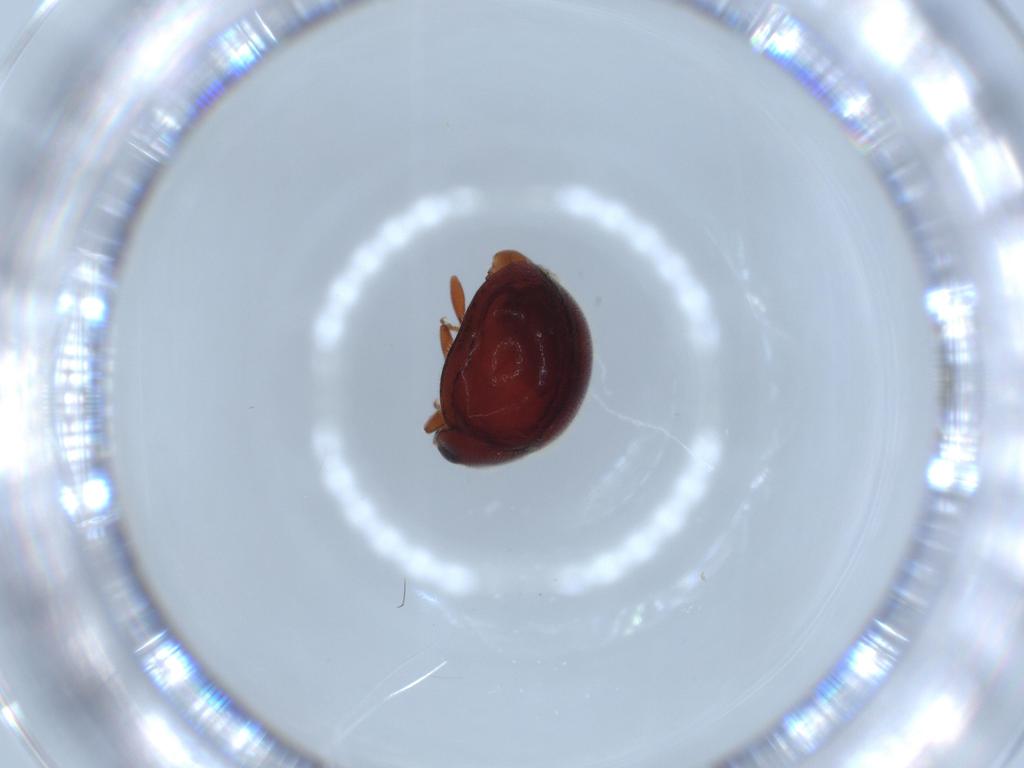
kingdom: Animalia
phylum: Arthropoda
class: Insecta
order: Coleoptera
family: Coccinellidae
